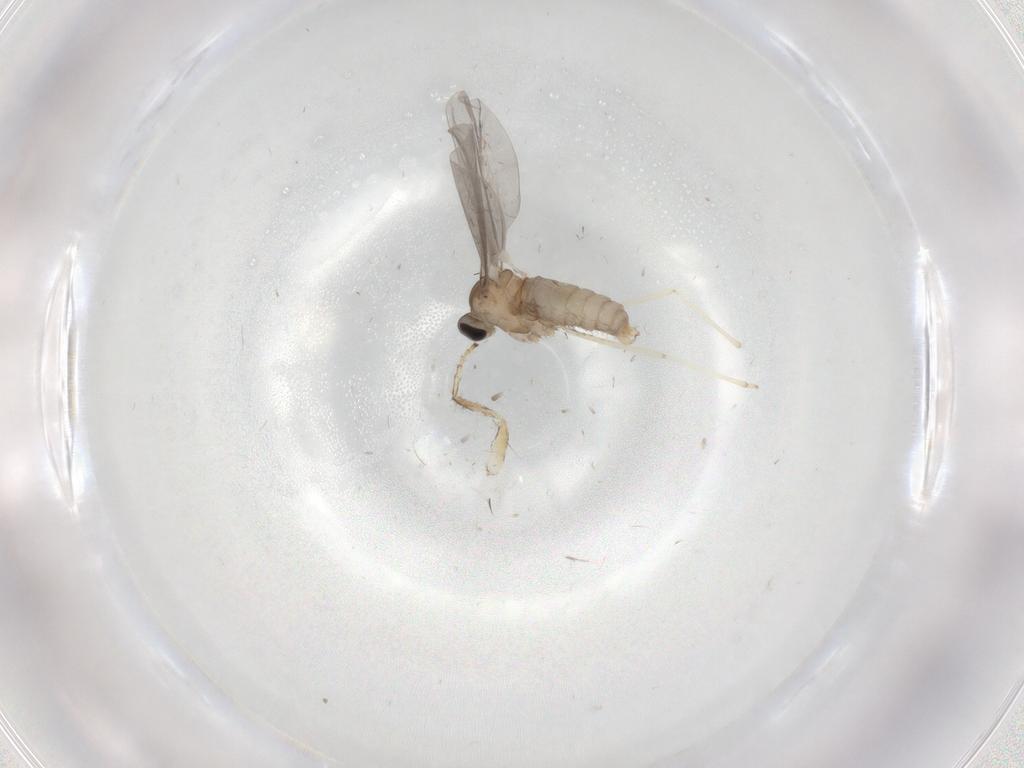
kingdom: Animalia
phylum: Arthropoda
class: Insecta
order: Diptera
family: Cecidomyiidae
